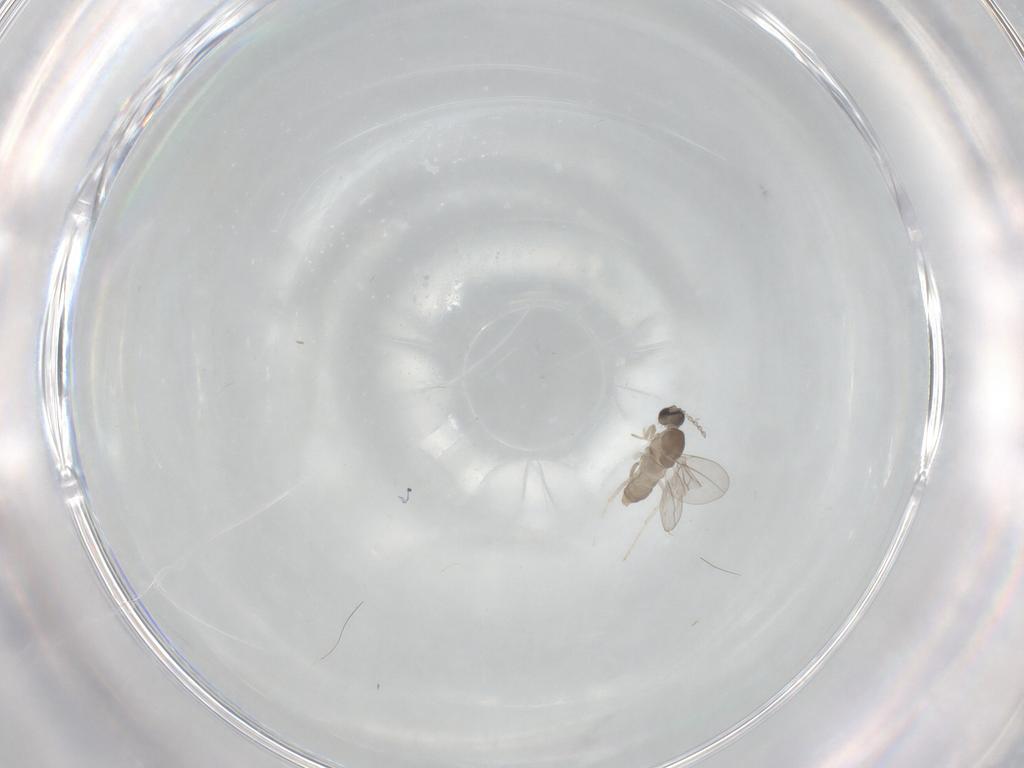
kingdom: Animalia
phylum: Arthropoda
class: Insecta
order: Diptera
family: Cecidomyiidae
